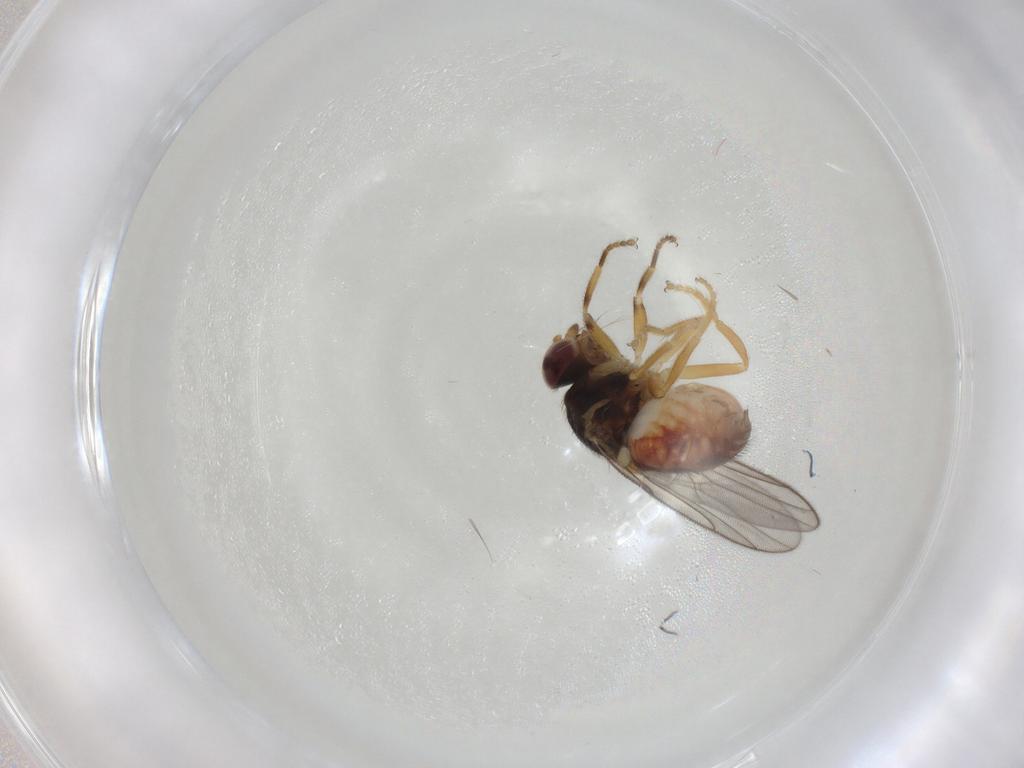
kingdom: Animalia
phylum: Arthropoda
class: Insecta
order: Diptera
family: Chloropidae
